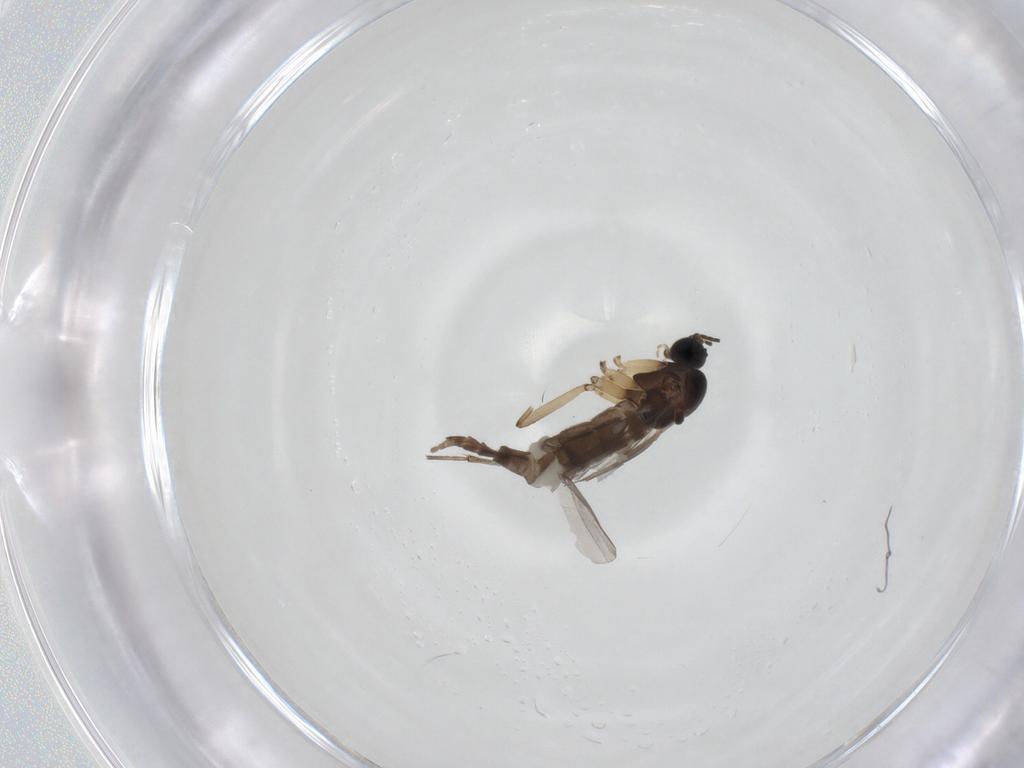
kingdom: Animalia
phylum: Arthropoda
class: Insecta
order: Diptera
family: Sciaridae
